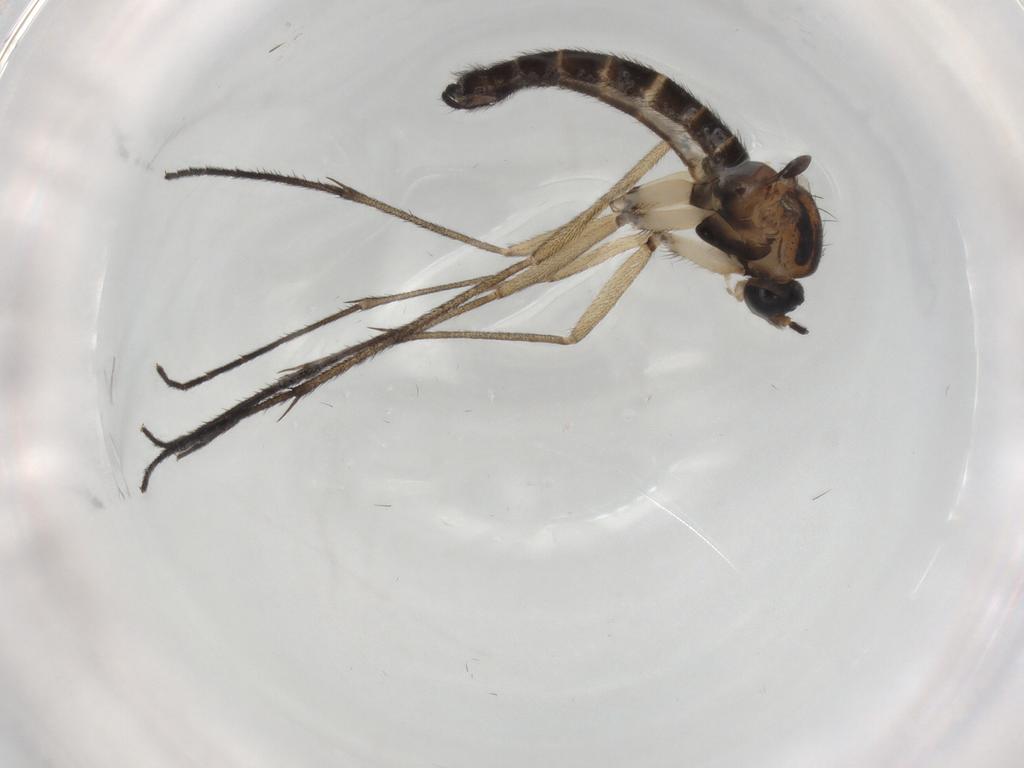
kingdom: Animalia
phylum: Arthropoda
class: Insecta
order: Diptera
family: Sciaridae
